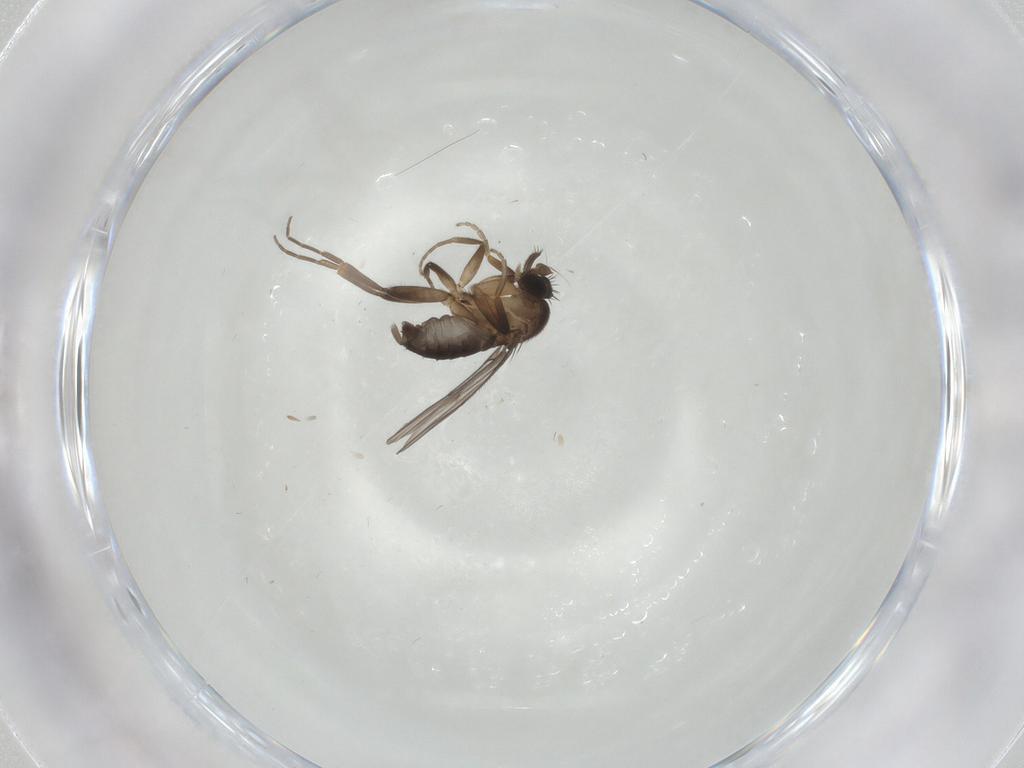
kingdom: Animalia
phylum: Arthropoda
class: Insecta
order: Diptera
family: Phoridae
